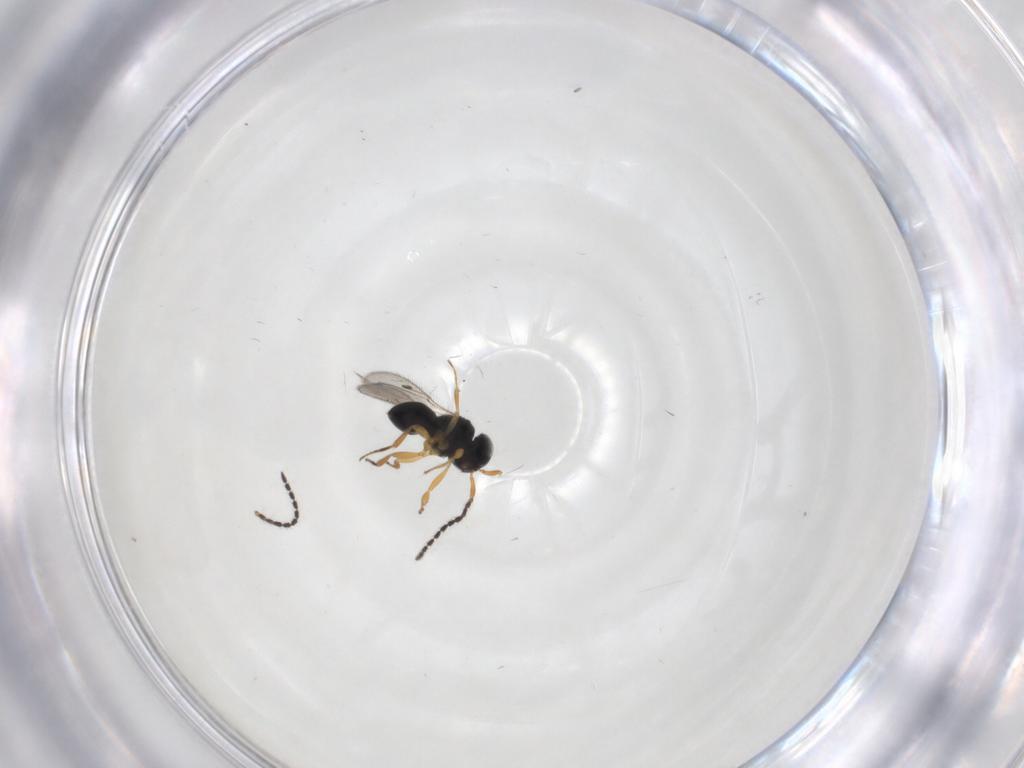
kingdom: Animalia
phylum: Arthropoda
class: Insecta
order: Hymenoptera
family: Scelionidae
